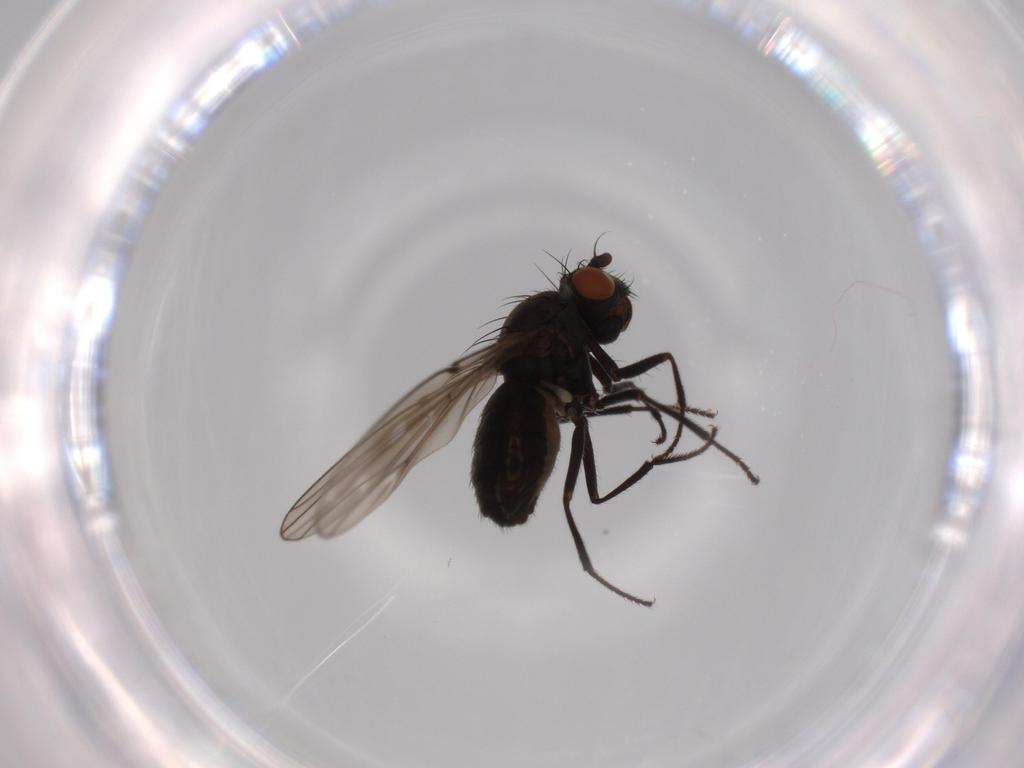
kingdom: Animalia
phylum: Arthropoda
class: Insecta
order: Diptera
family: Ephydridae
